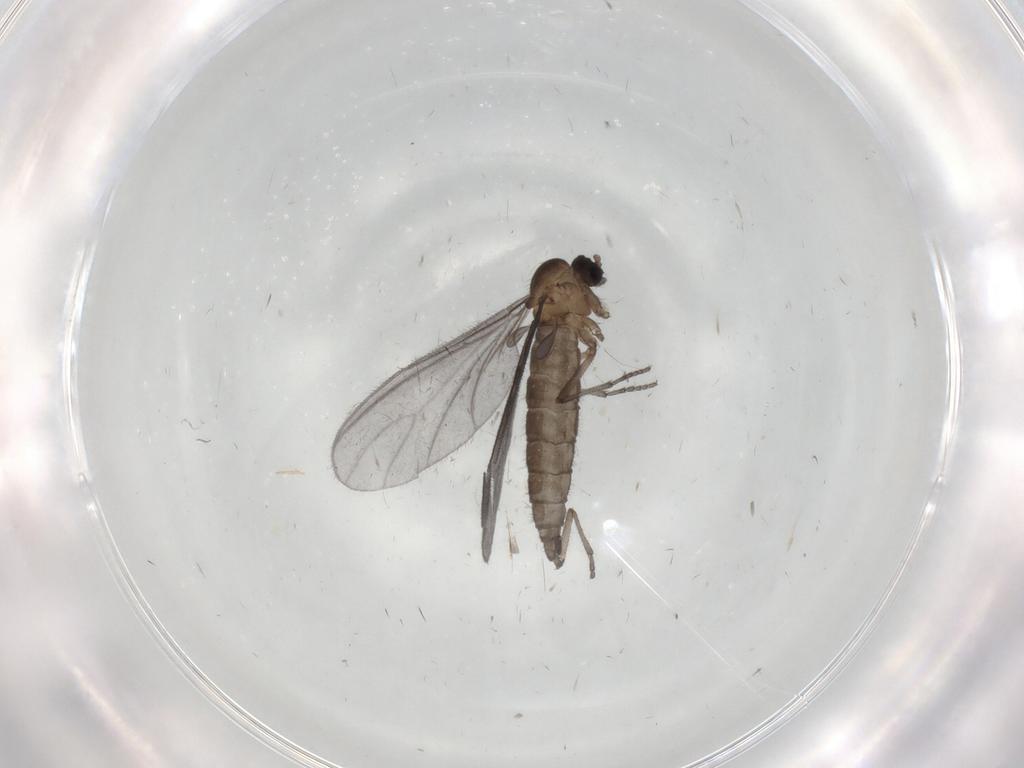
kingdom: Animalia
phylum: Arthropoda
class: Insecta
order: Diptera
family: Sciaridae
